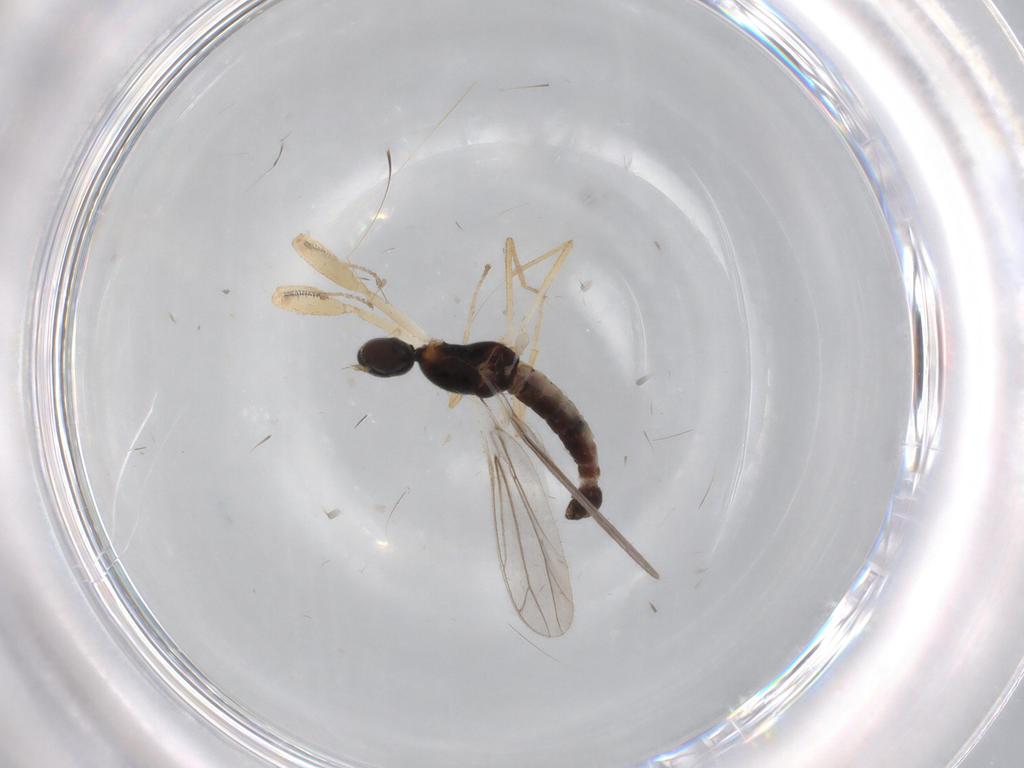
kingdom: Animalia
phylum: Arthropoda
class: Insecta
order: Diptera
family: Empididae
